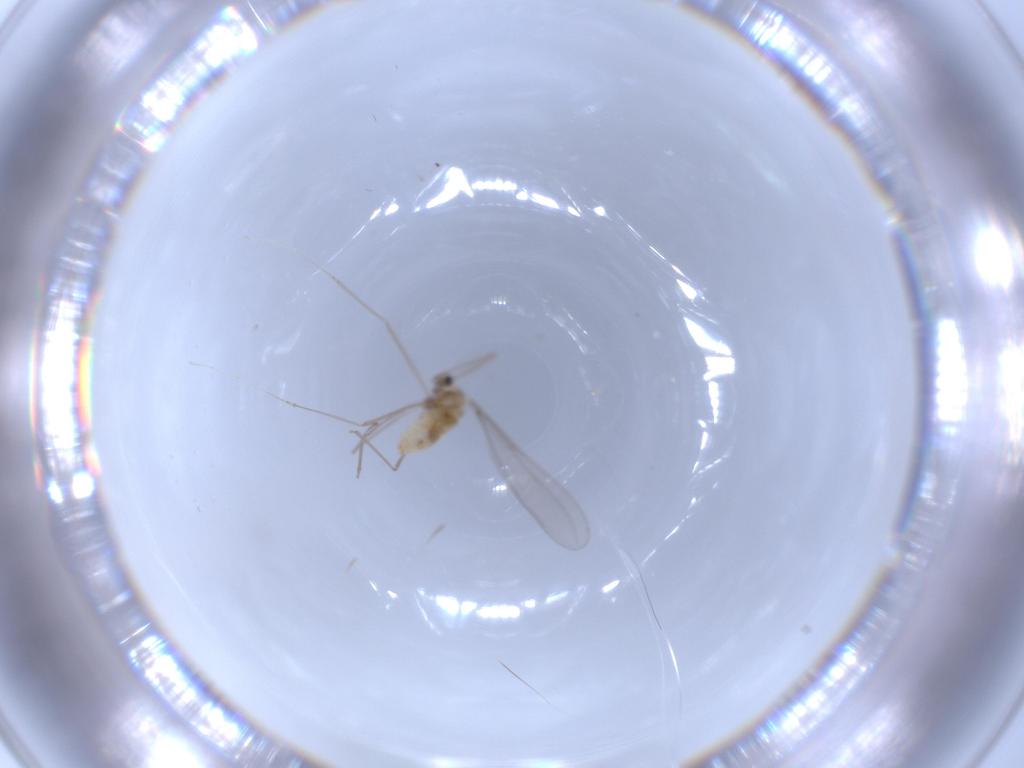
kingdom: Animalia
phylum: Arthropoda
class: Insecta
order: Diptera
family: Cecidomyiidae
